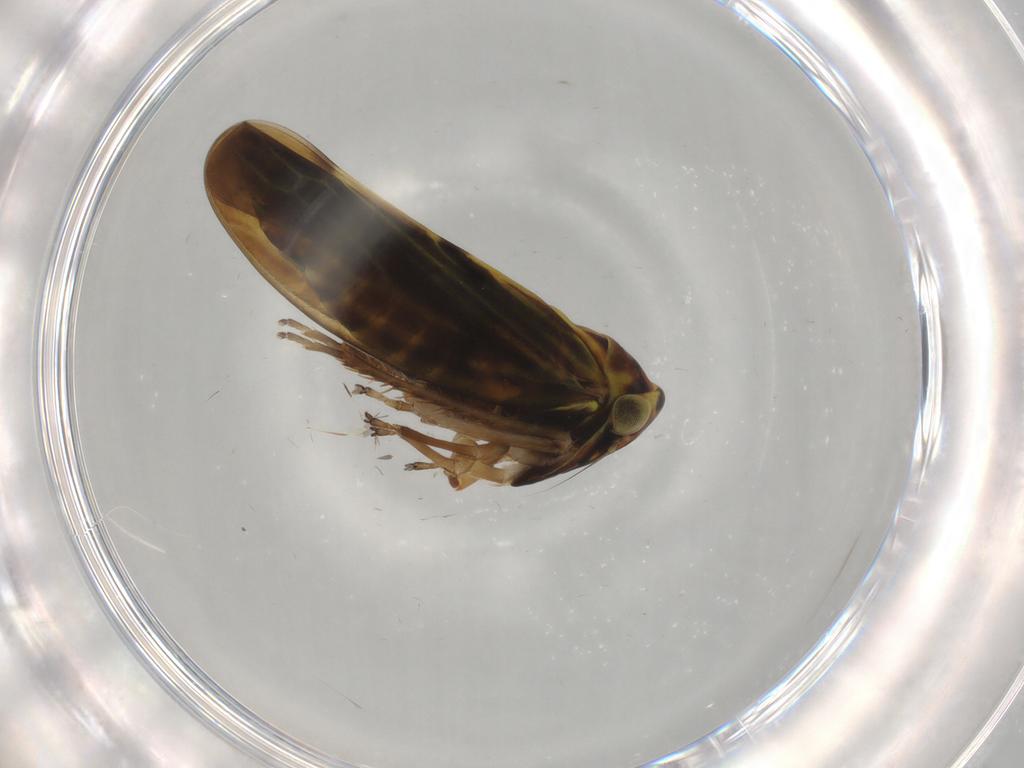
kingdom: Animalia
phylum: Arthropoda
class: Insecta
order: Hemiptera
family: Cicadellidae
